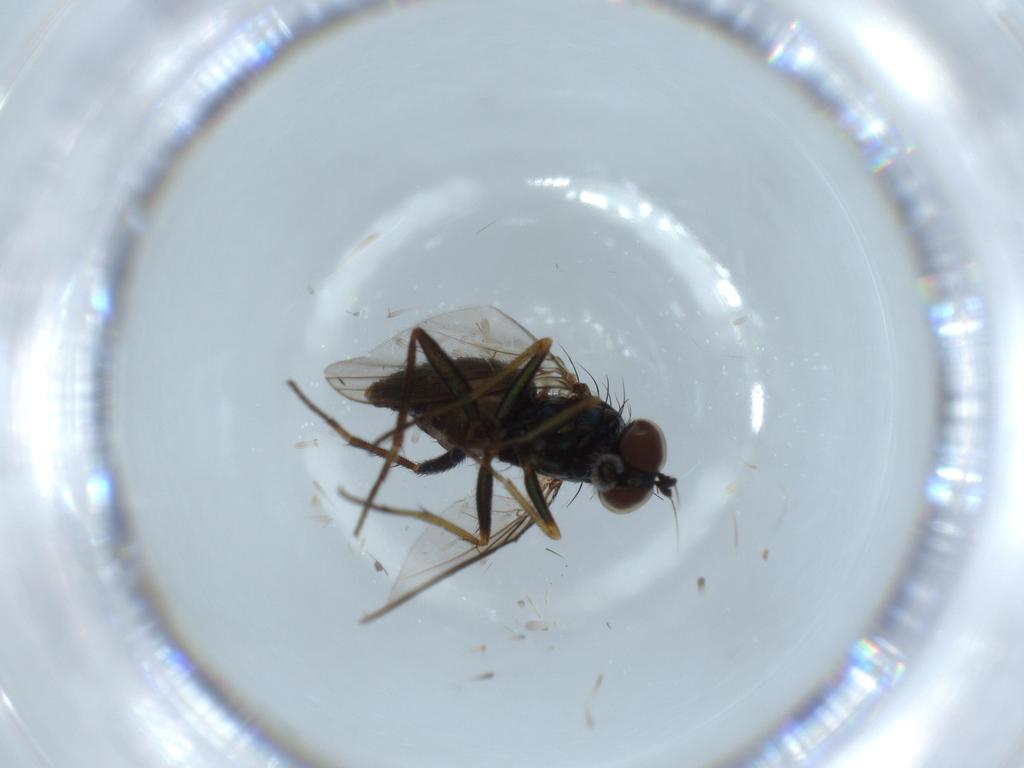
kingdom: Animalia
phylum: Arthropoda
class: Insecta
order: Diptera
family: Dolichopodidae
